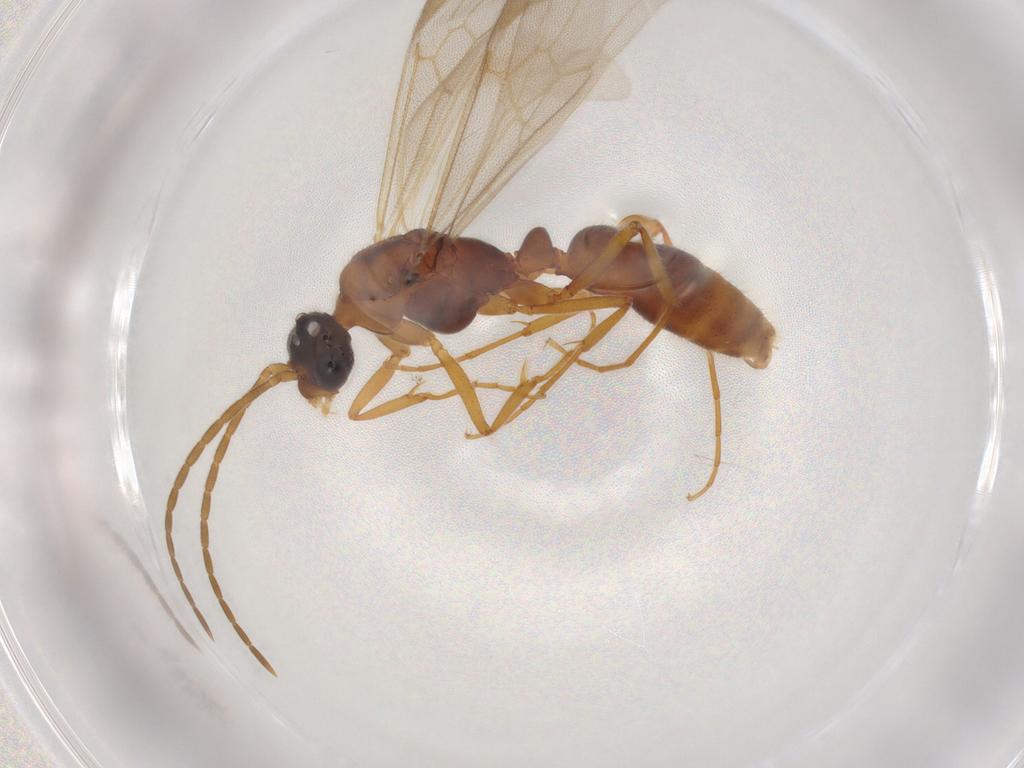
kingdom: Animalia
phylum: Arthropoda
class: Insecta
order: Hymenoptera
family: Formicidae
